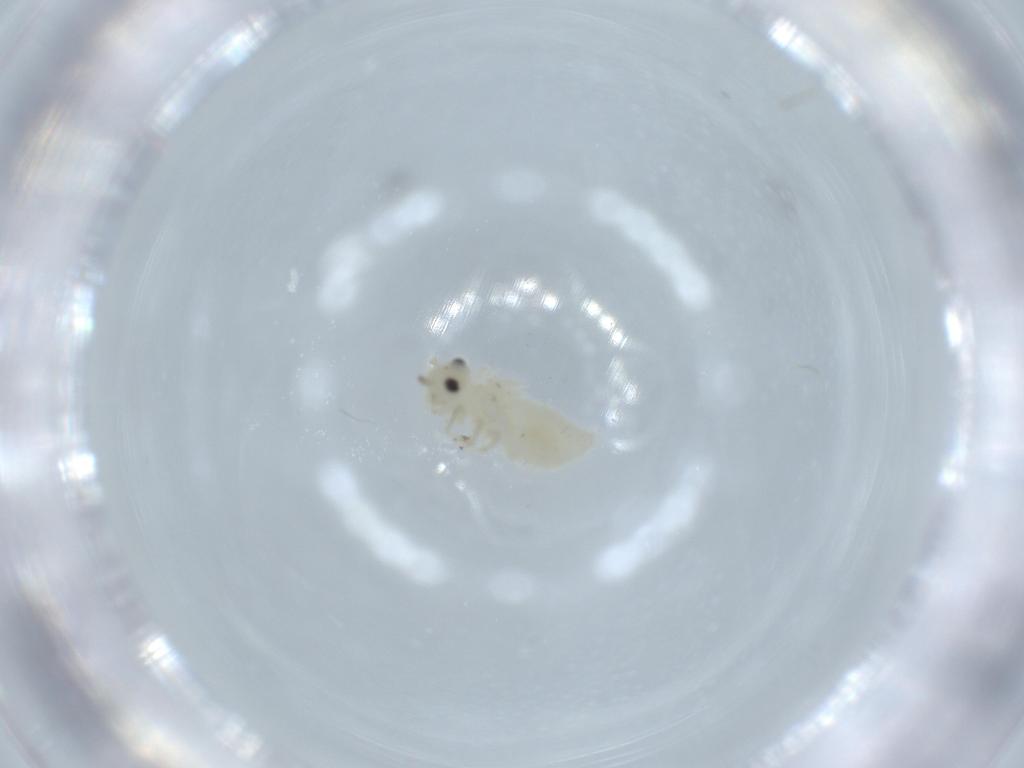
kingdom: Animalia
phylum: Arthropoda
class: Insecta
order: Psocodea
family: Caeciliusidae
